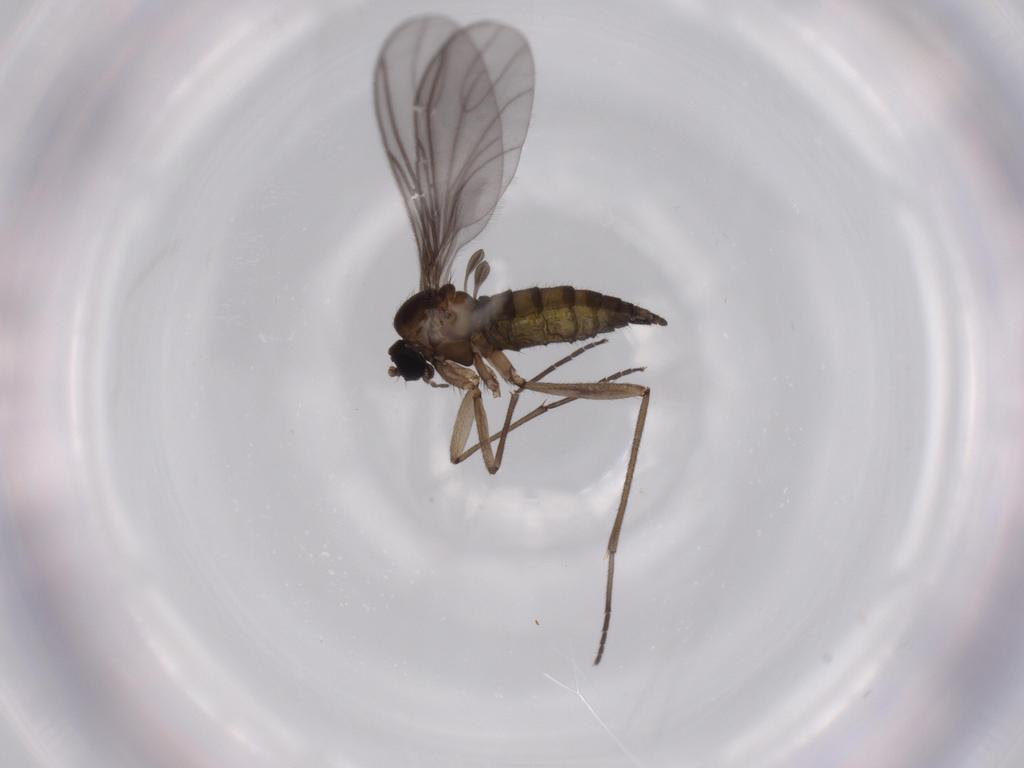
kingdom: Animalia
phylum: Arthropoda
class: Insecta
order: Diptera
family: Sciaridae
